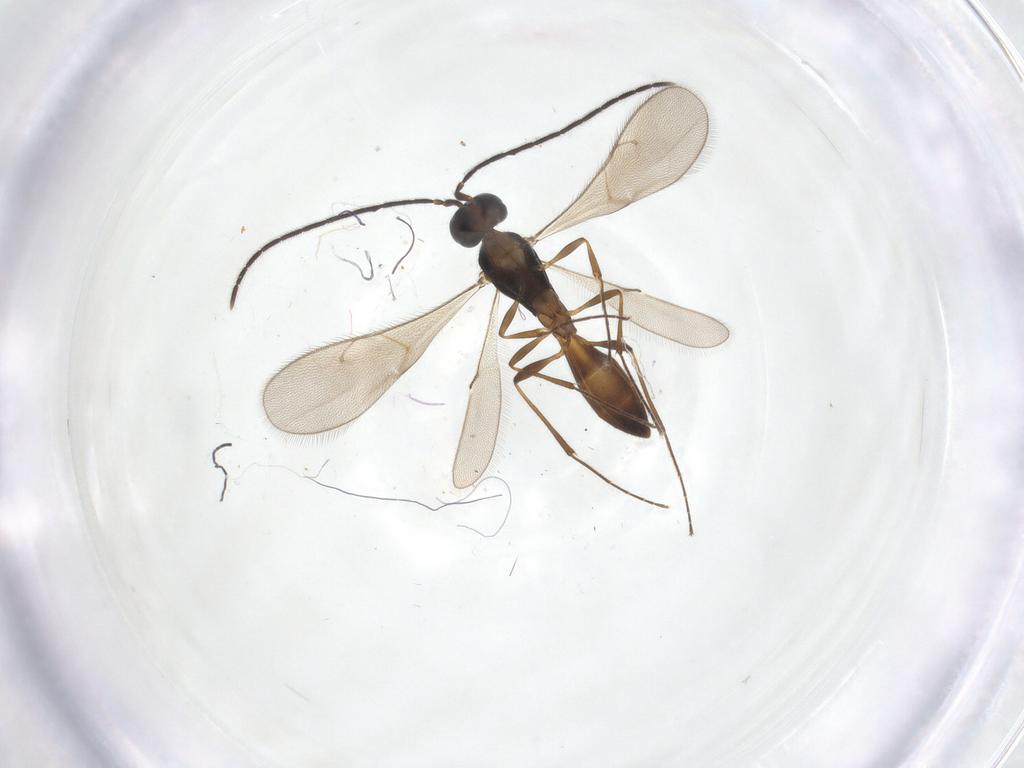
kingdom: Animalia
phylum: Arthropoda
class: Insecta
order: Hymenoptera
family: Scelionidae
